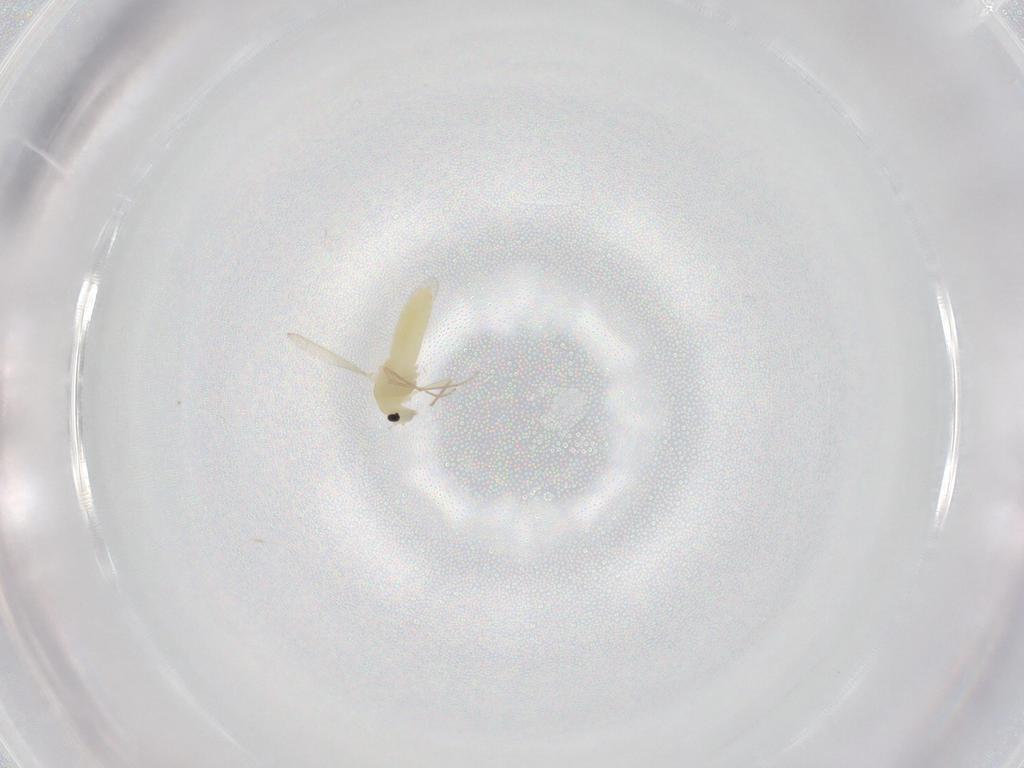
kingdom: Animalia
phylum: Arthropoda
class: Insecta
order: Diptera
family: Chironomidae
